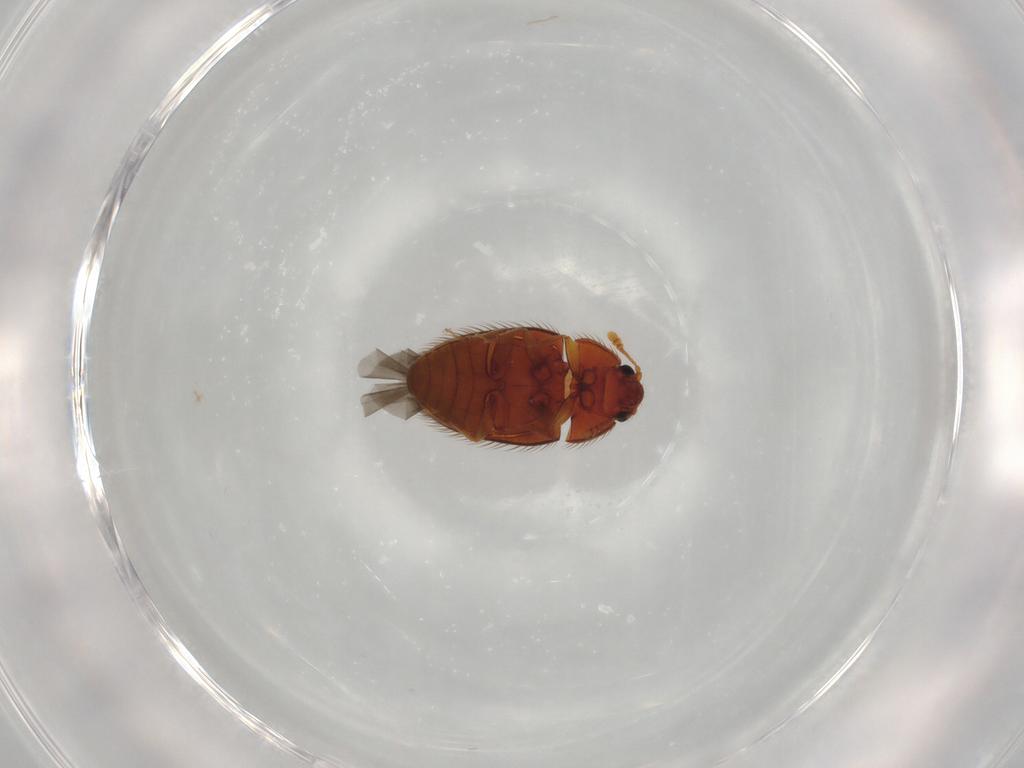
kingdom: Animalia
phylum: Arthropoda
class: Insecta
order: Coleoptera
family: Biphyllidae
